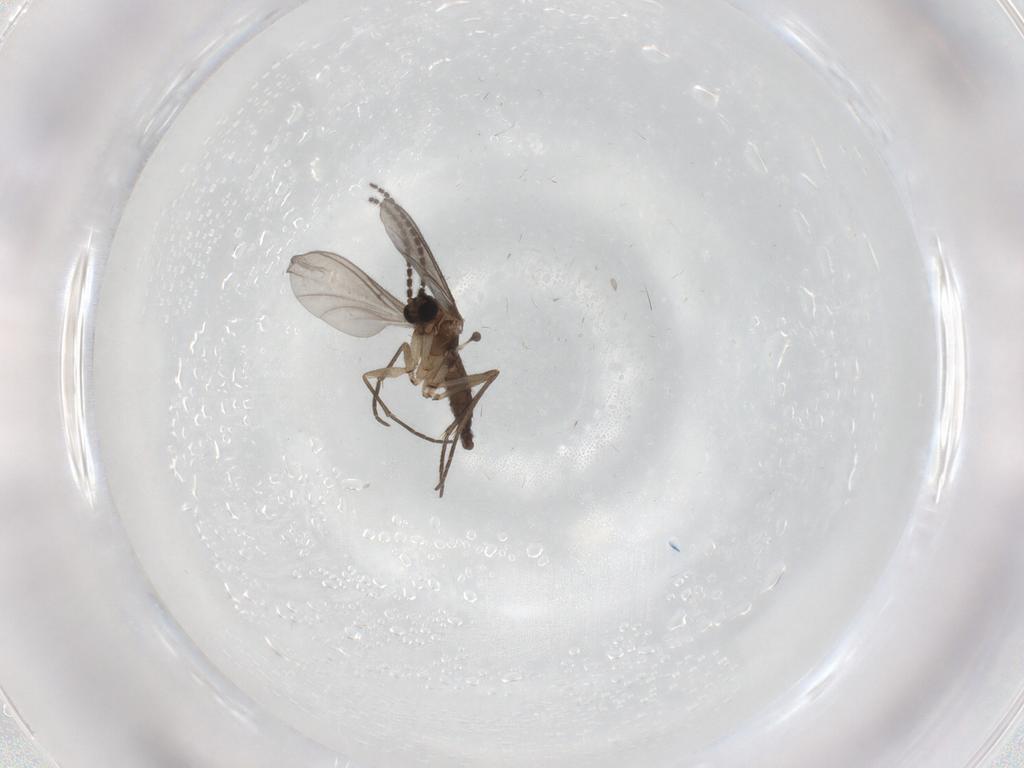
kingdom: Animalia
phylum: Arthropoda
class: Insecta
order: Diptera
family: Sciaridae
